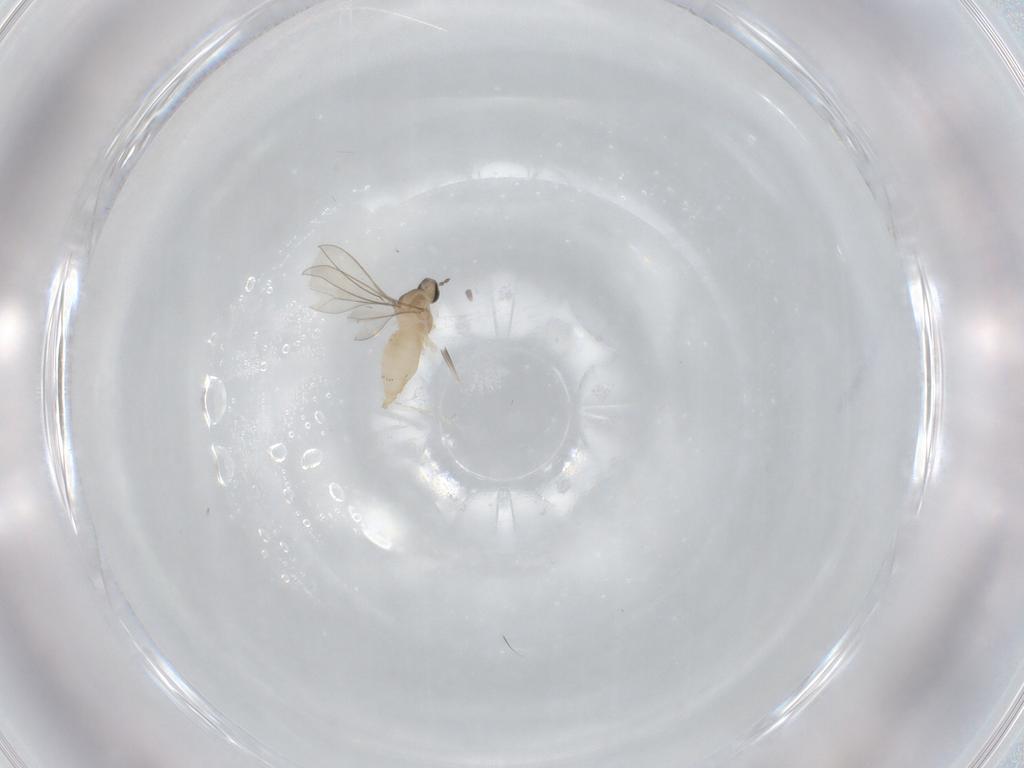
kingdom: Animalia
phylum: Arthropoda
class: Insecta
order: Diptera
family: Cecidomyiidae
